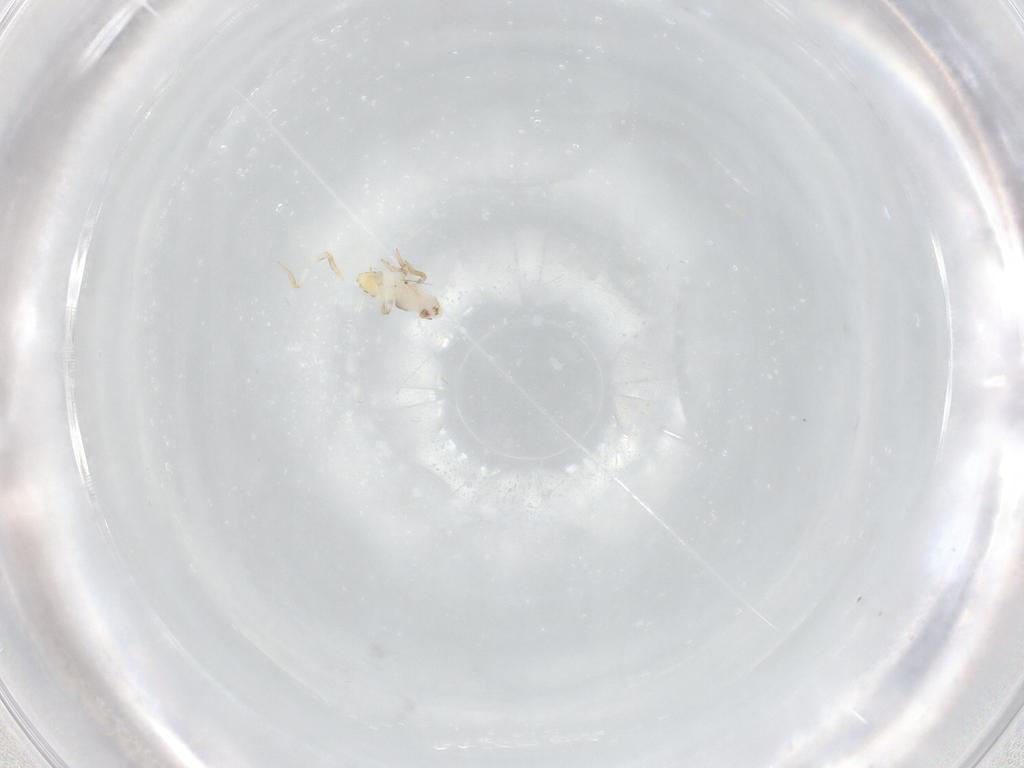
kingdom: Animalia
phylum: Arthropoda
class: Insecta
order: Hemiptera
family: Delphacidae
